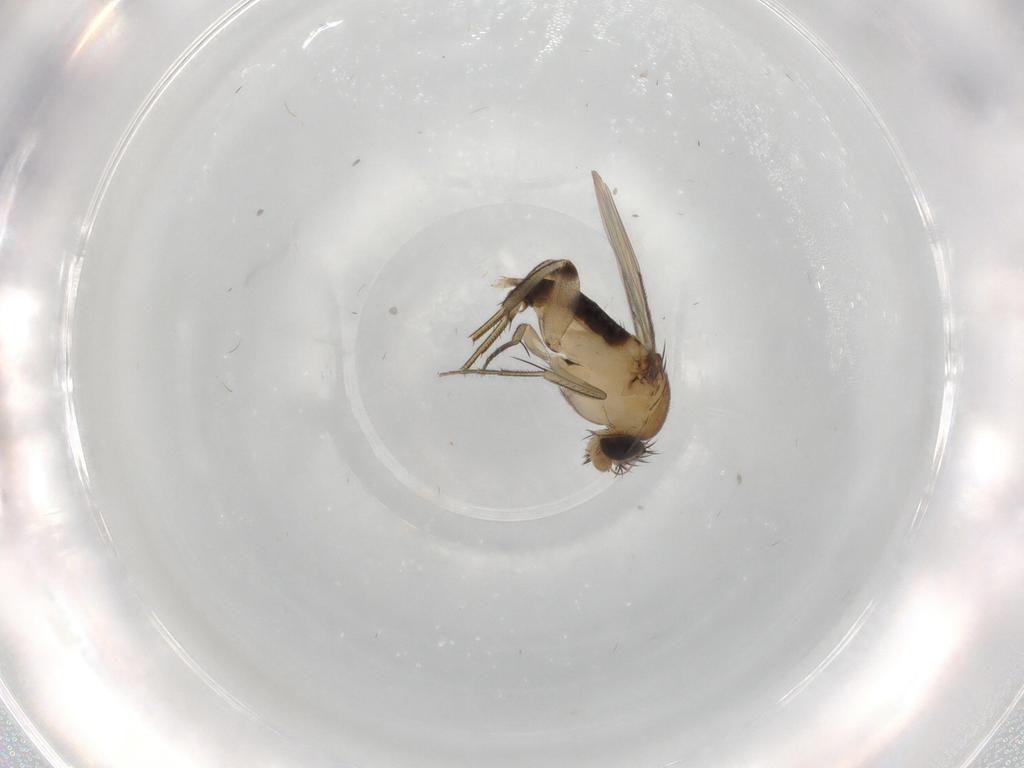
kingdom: Animalia
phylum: Arthropoda
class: Insecta
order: Diptera
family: Phoridae
